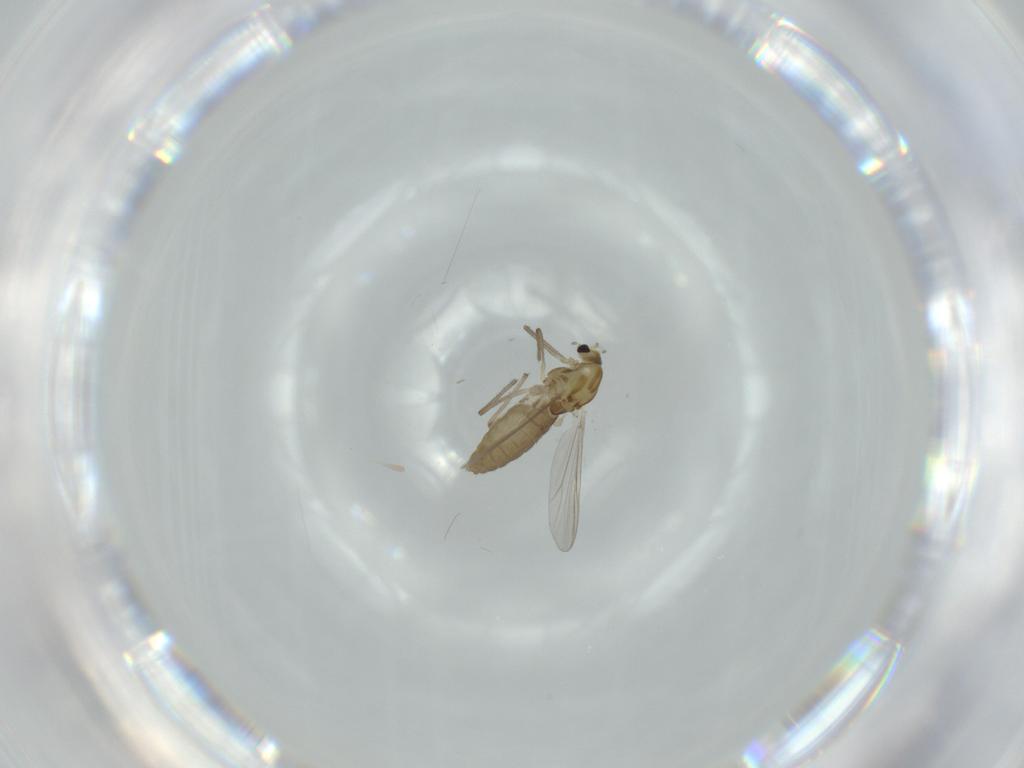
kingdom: Animalia
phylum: Arthropoda
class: Insecta
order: Diptera
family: Chironomidae
